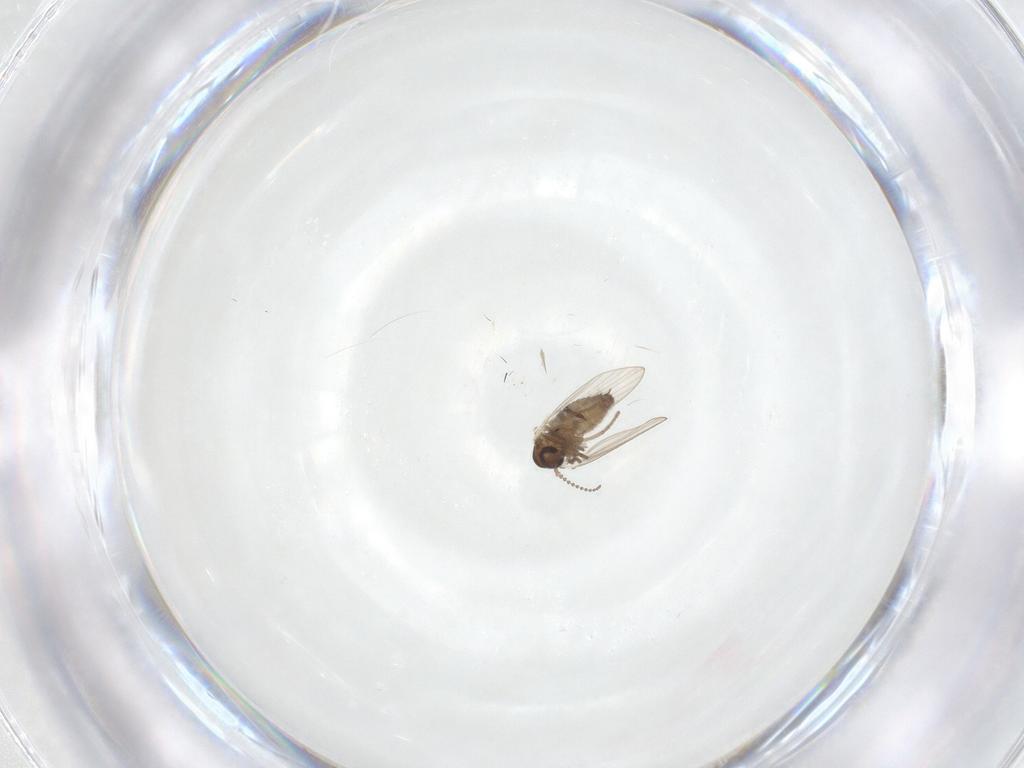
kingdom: Animalia
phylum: Arthropoda
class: Insecta
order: Diptera
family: Psychodidae
